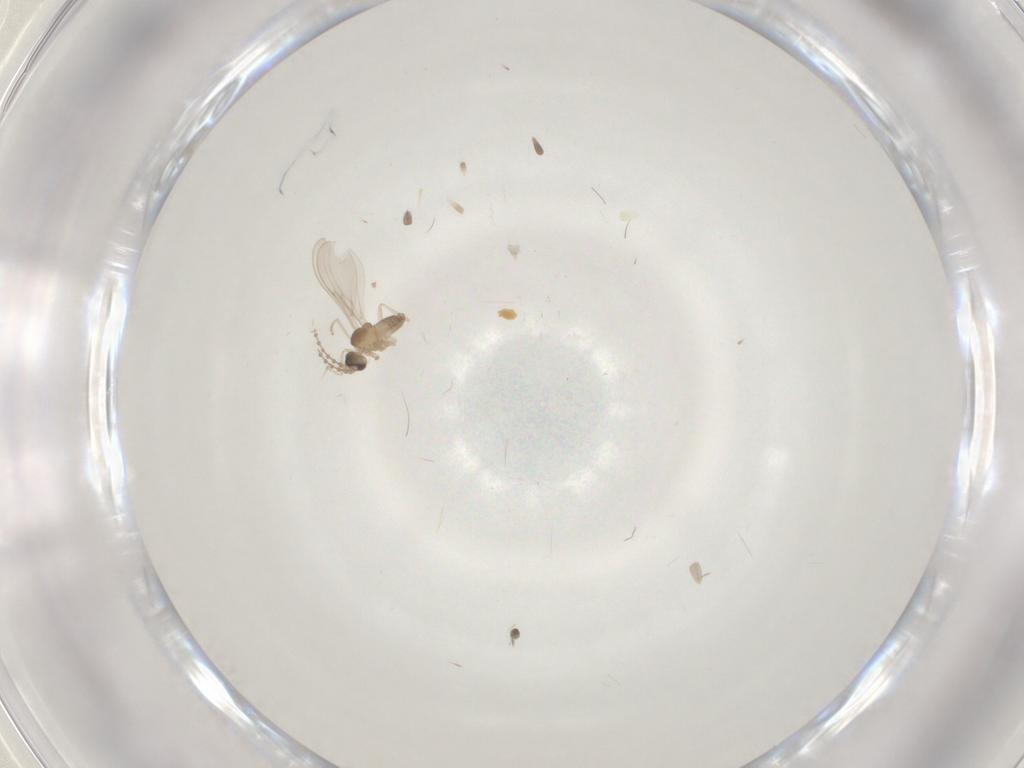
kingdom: Animalia
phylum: Arthropoda
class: Insecta
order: Diptera
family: Cecidomyiidae
